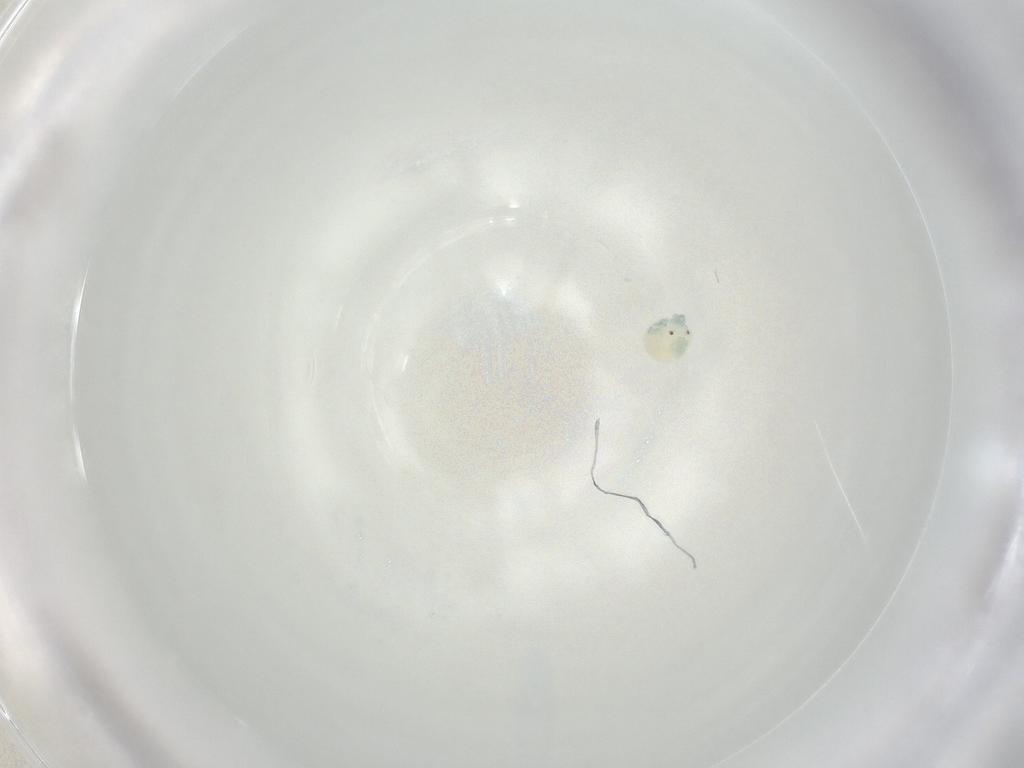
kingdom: Animalia
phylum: Arthropoda
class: Arachnida
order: Trombidiformes
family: Arrenuridae
